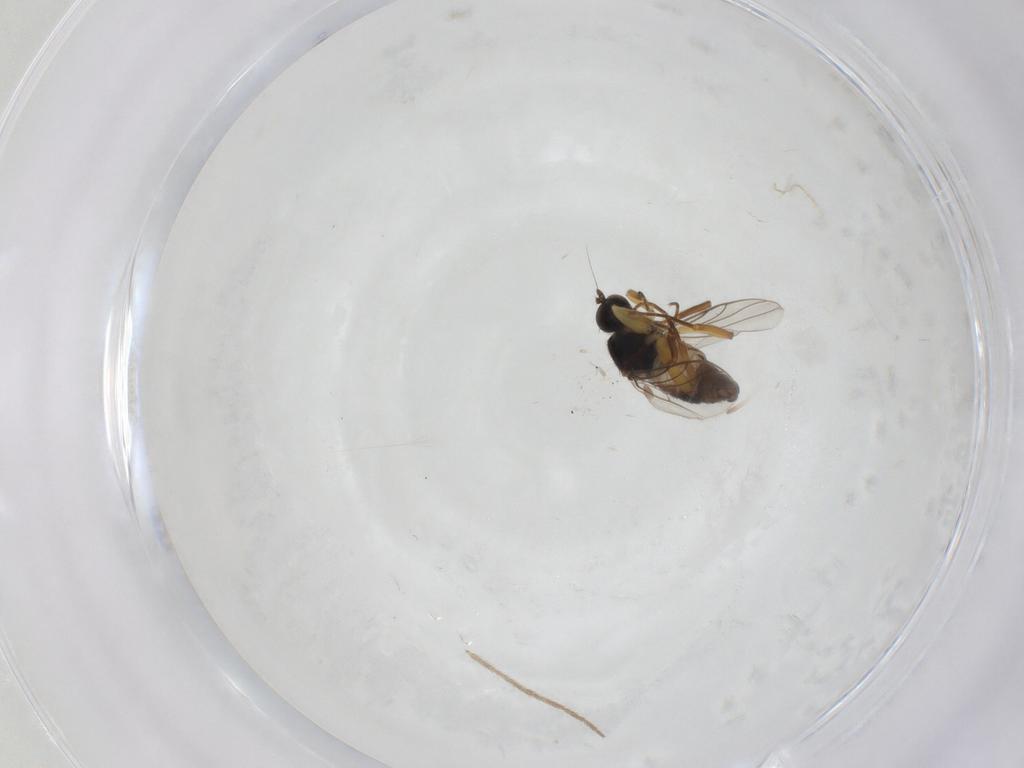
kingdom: Animalia
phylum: Arthropoda
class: Insecta
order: Diptera
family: Hybotidae
